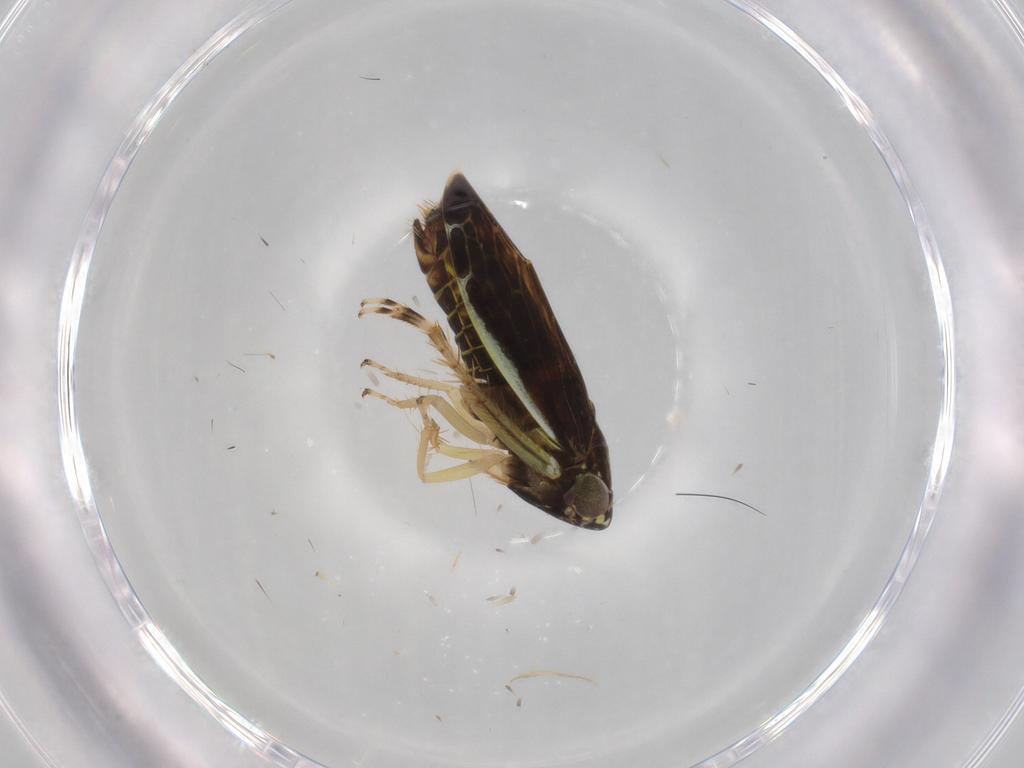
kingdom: Animalia
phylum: Arthropoda
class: Insecta
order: Hemiptera
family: Cicadellidae
